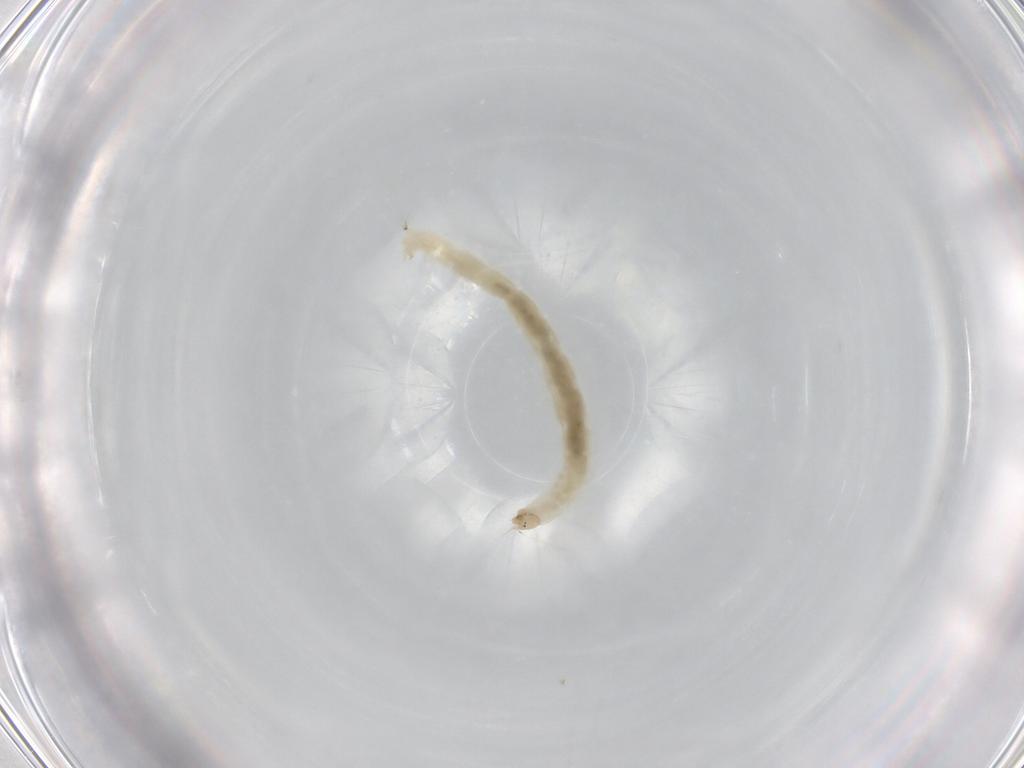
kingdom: Animalia
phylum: Arthropoda
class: Insecta
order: Diptera
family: Chironomidae
